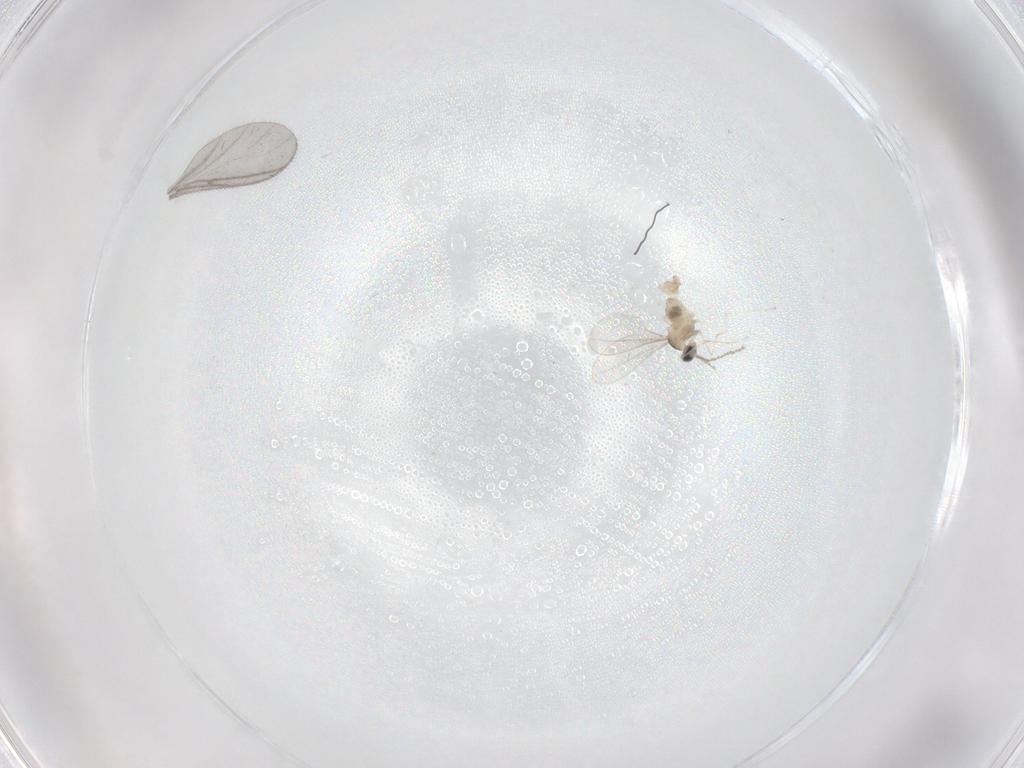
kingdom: Animalia
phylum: Arthropoda
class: Insecta
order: Diptera
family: Cecidomyiidae
